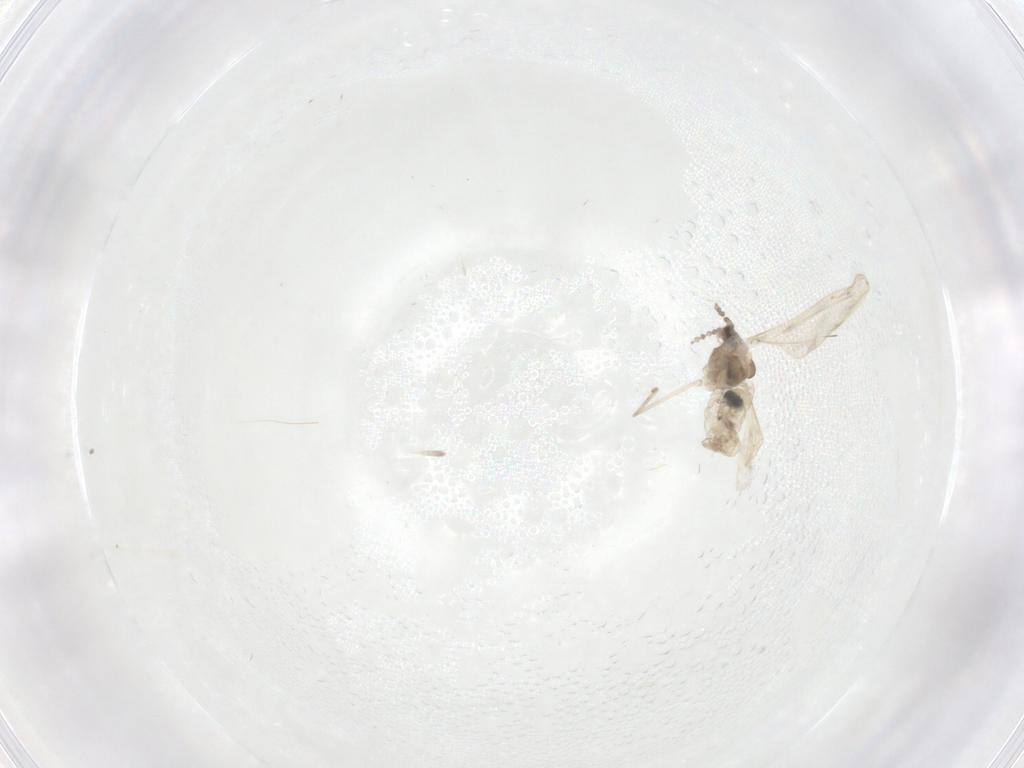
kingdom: Animalia
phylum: Arthropoda
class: Insecta
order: Diptera
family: Cecidomyiidae
